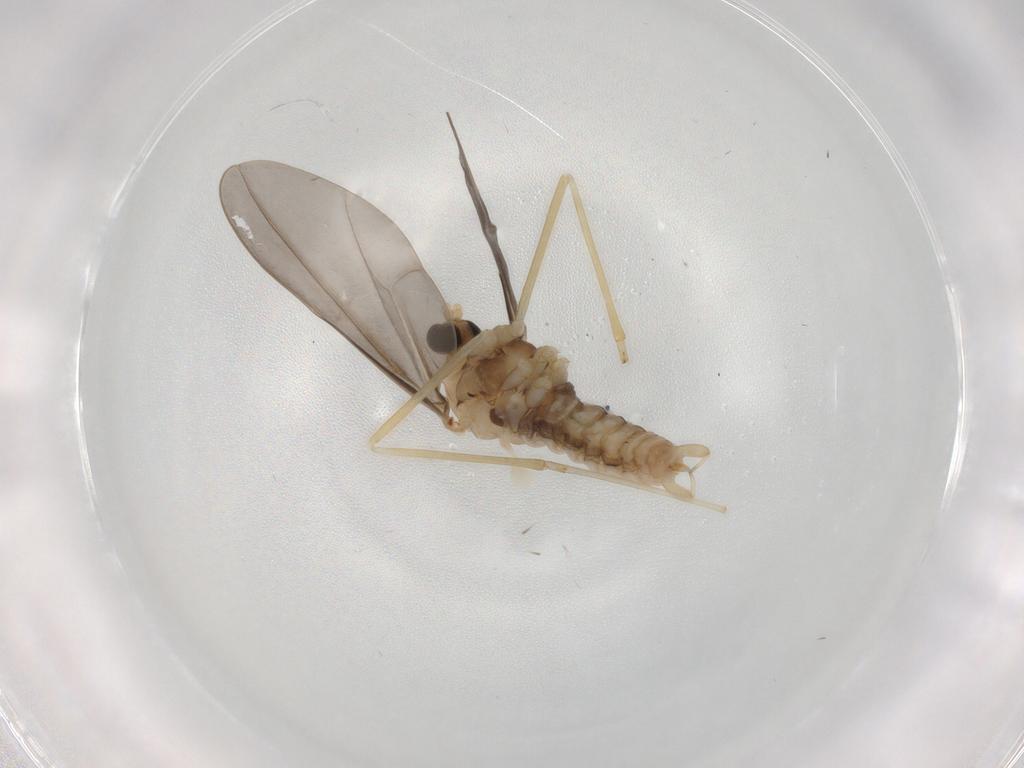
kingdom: Animalia
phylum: Arthropoda
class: Insecta
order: Diptera
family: Cecidomyiidae
